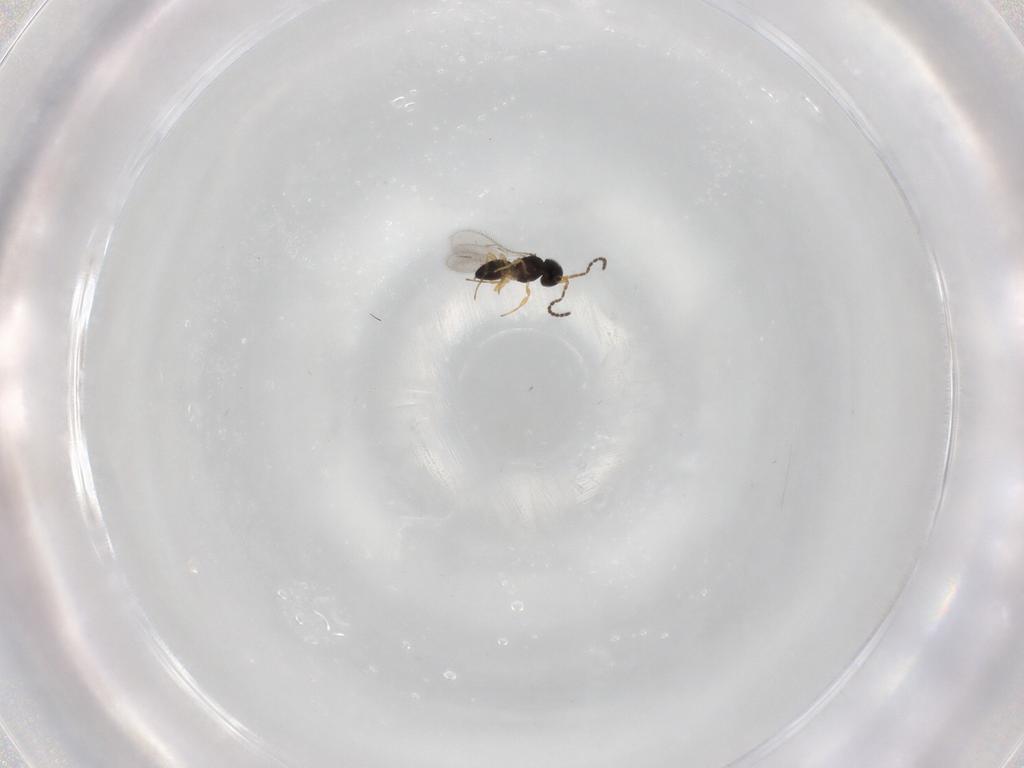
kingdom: Animalia
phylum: Arthropoda
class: Insecta
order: Hymenoptera
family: Scelionidae
